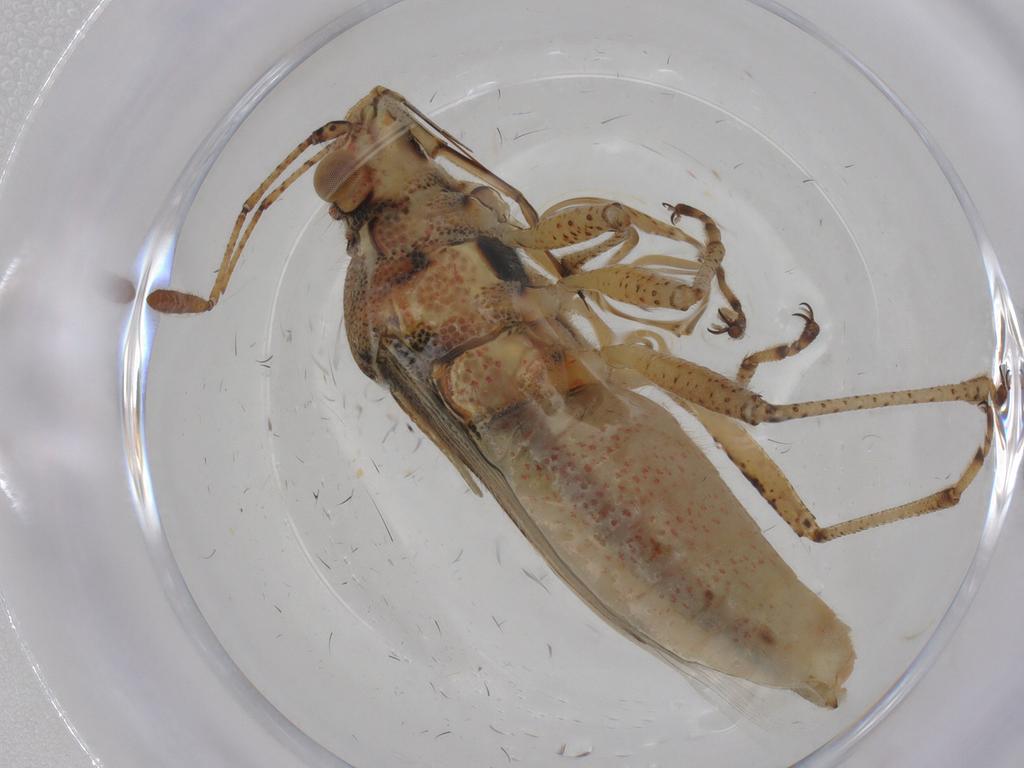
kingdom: Animalia
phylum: Arthropoda
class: Insecta
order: Hemiptera
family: Rhopalidae
